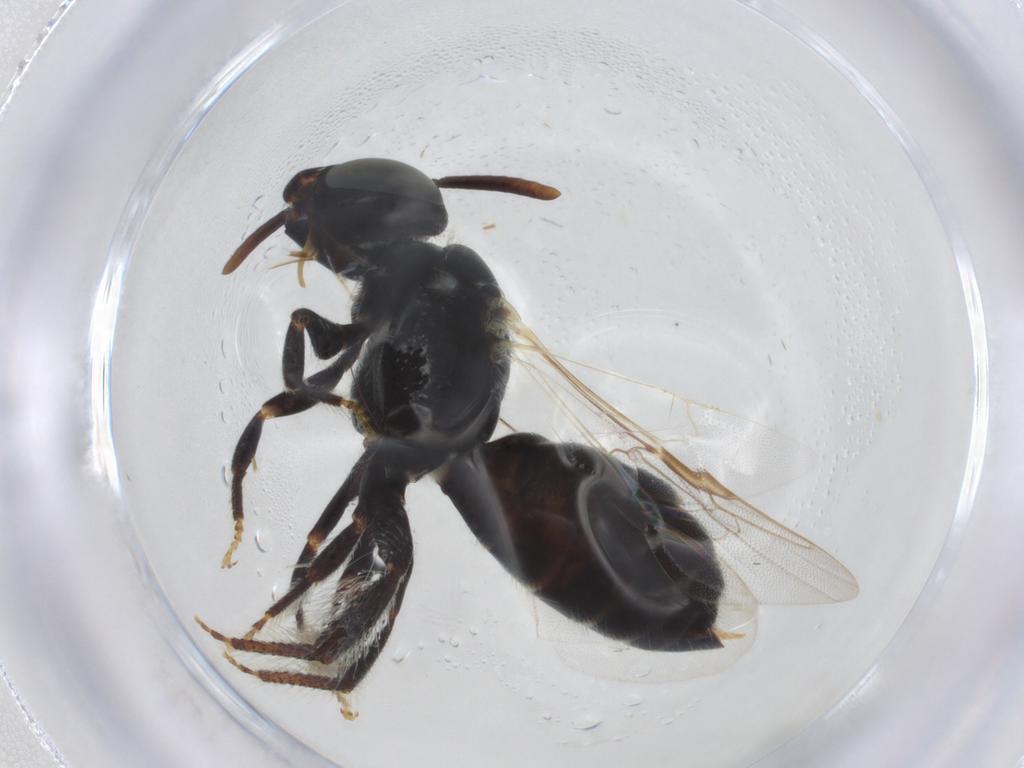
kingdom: Animalia
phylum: Arthropoda
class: Insecta
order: Hymenoptera
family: Apidae
